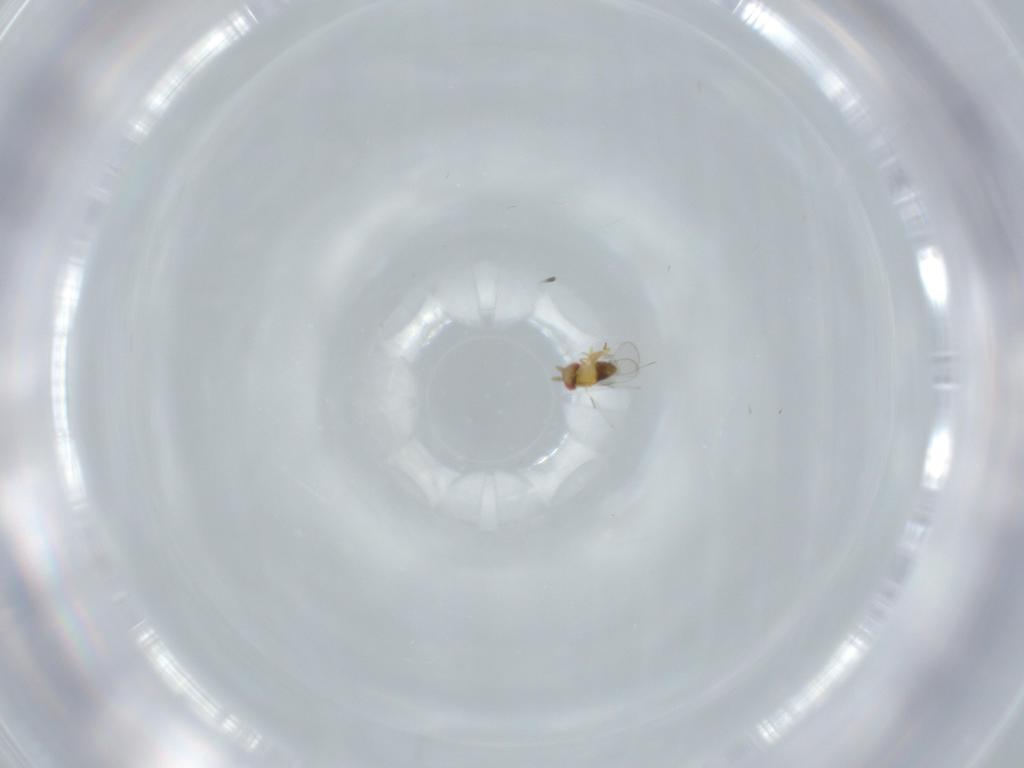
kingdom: Animalia
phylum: Arthropoda
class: Insecta
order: Hymenoptera
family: Trichogrammatidae
